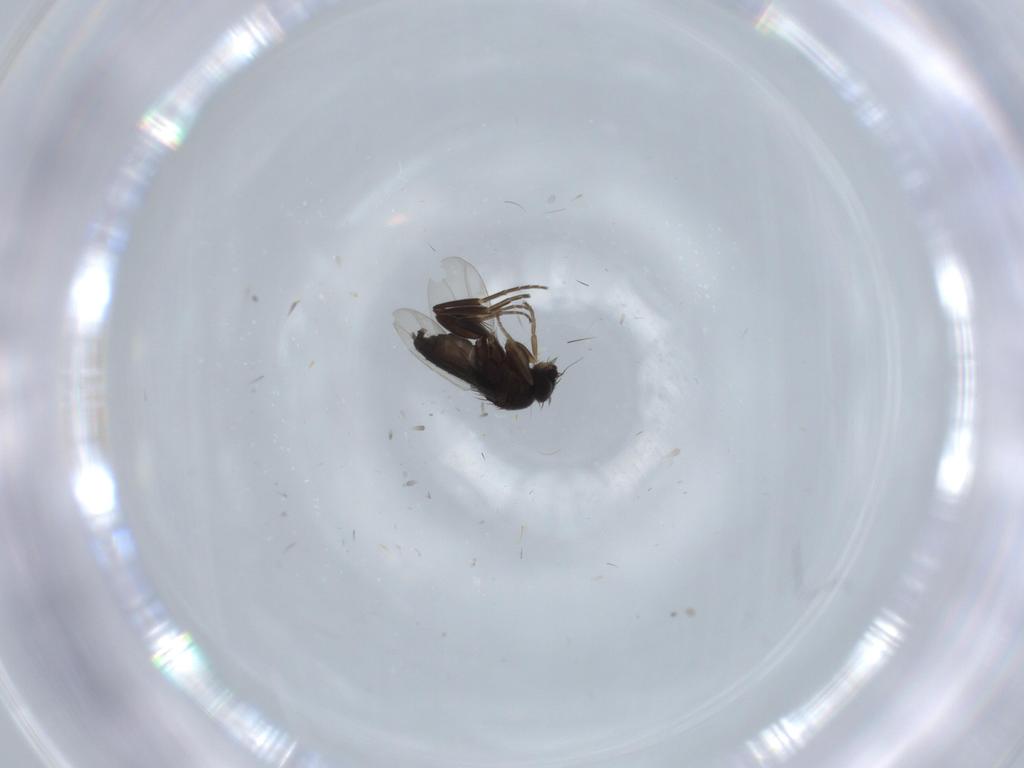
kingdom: Animalia
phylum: Arthropoda
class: Insecta
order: Diptera
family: Phoridae
